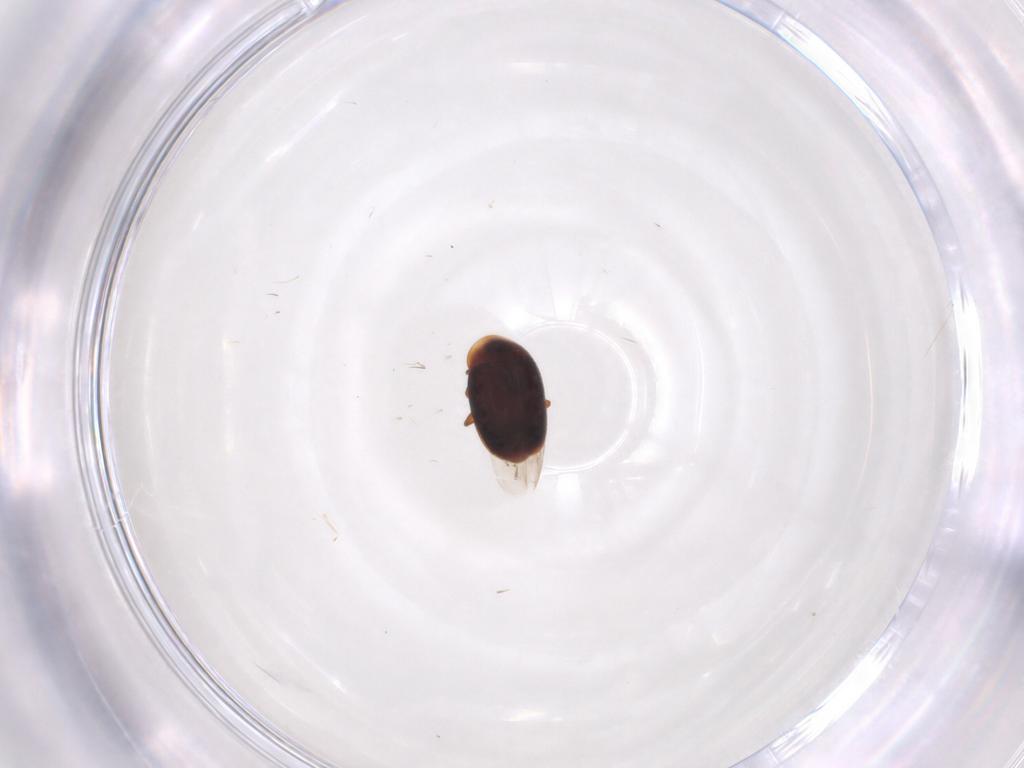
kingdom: Animalia
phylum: Arthropoda
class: Insecta
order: Coleoptera
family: Corylophidae
